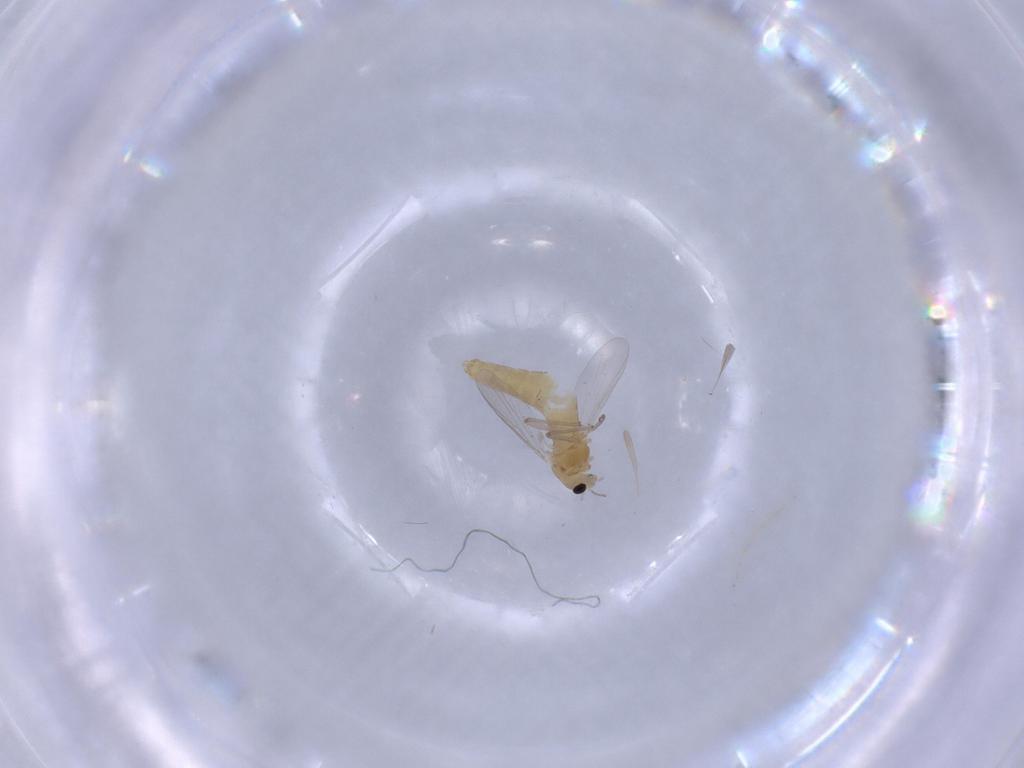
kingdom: Animalia
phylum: Arthropoda
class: Insecta
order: Diptera
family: Chironomidae
